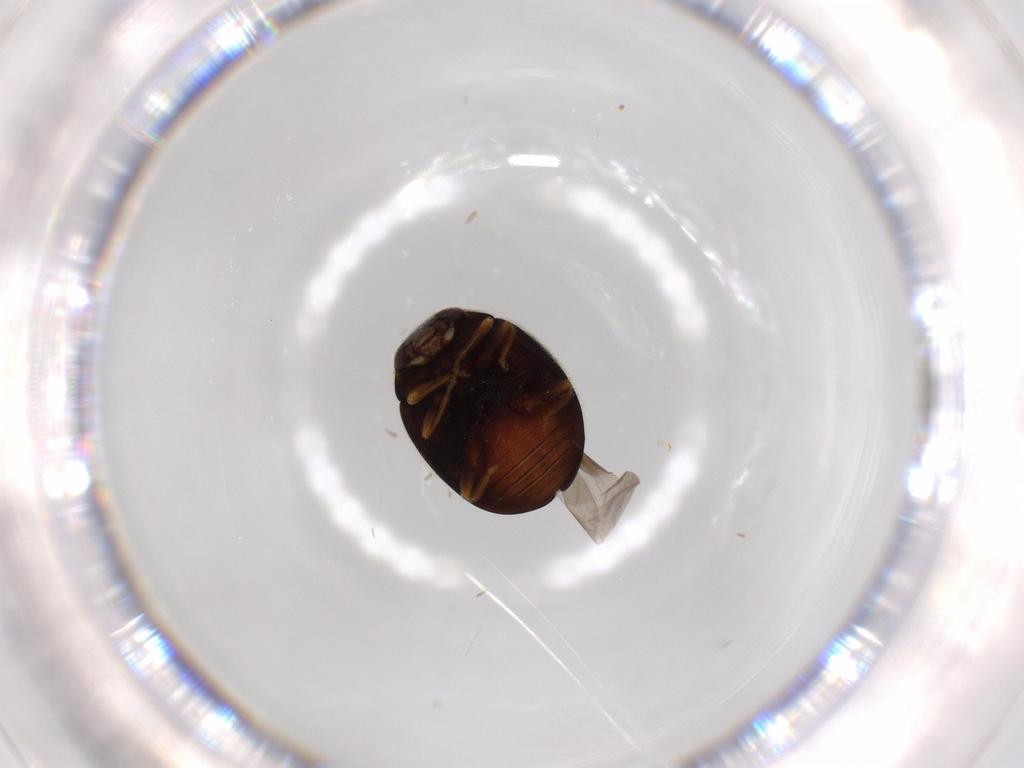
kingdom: Animalia
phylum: Arthropoda
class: Insecta
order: Coleoptera
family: Coccinellidae
